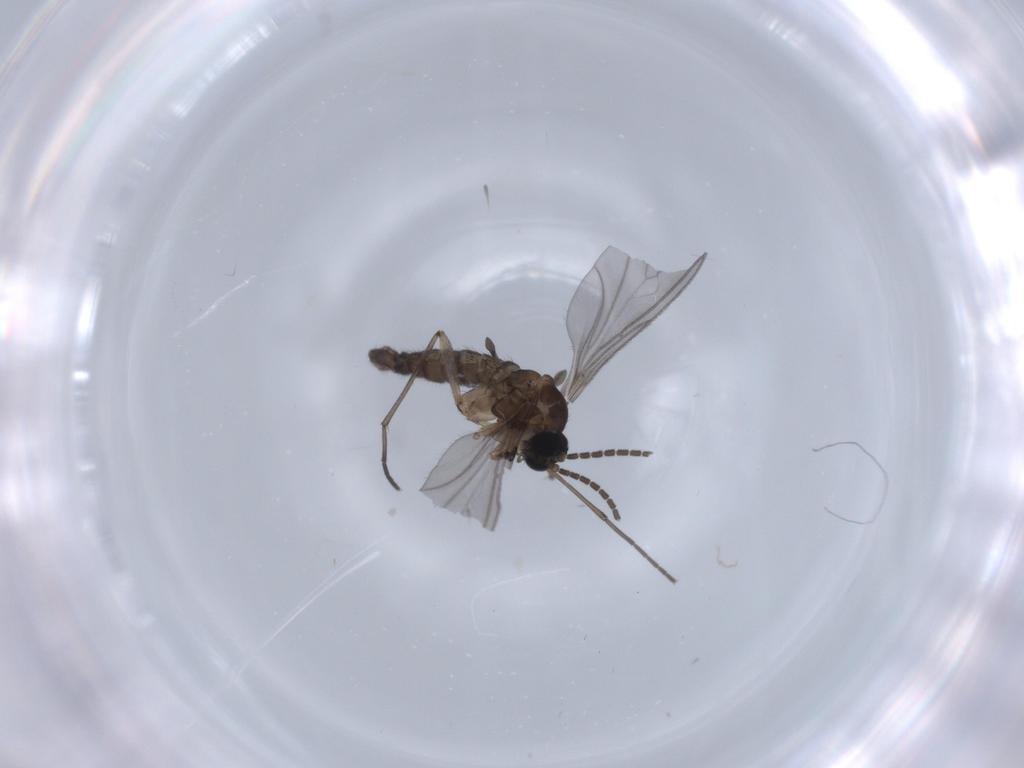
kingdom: Animalia
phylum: Arthropoda
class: Insecta
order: Diptera
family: Sciaridae
